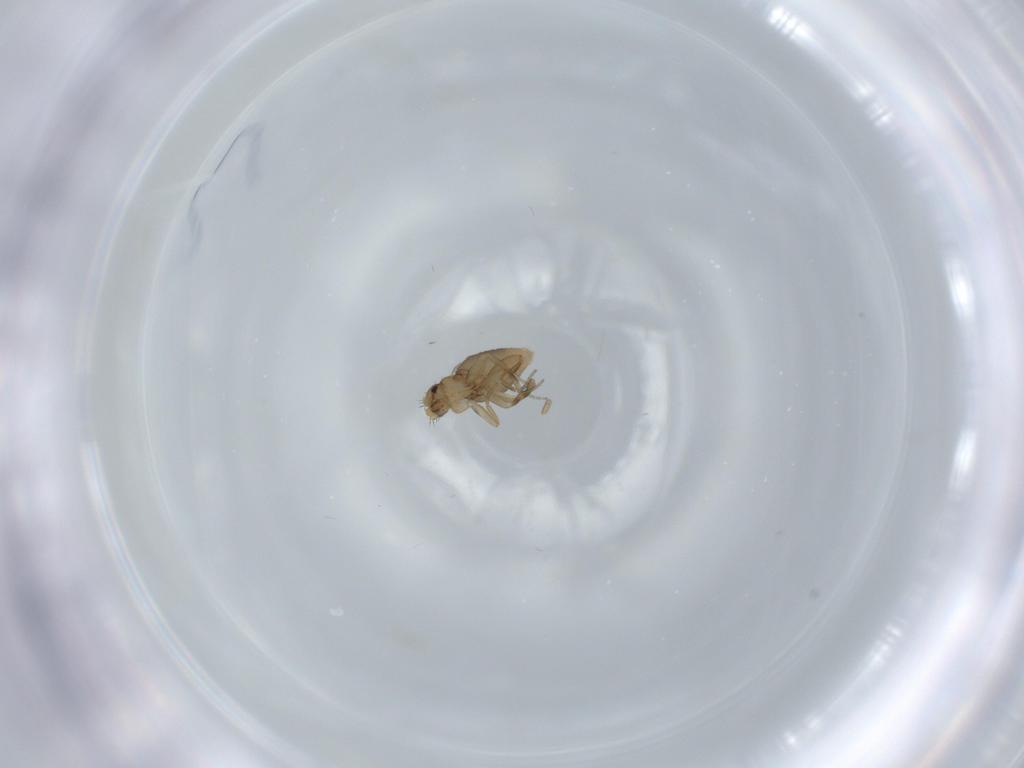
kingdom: Animalia
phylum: Arthropoda
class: Insecta
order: Diptera
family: Phoridae
